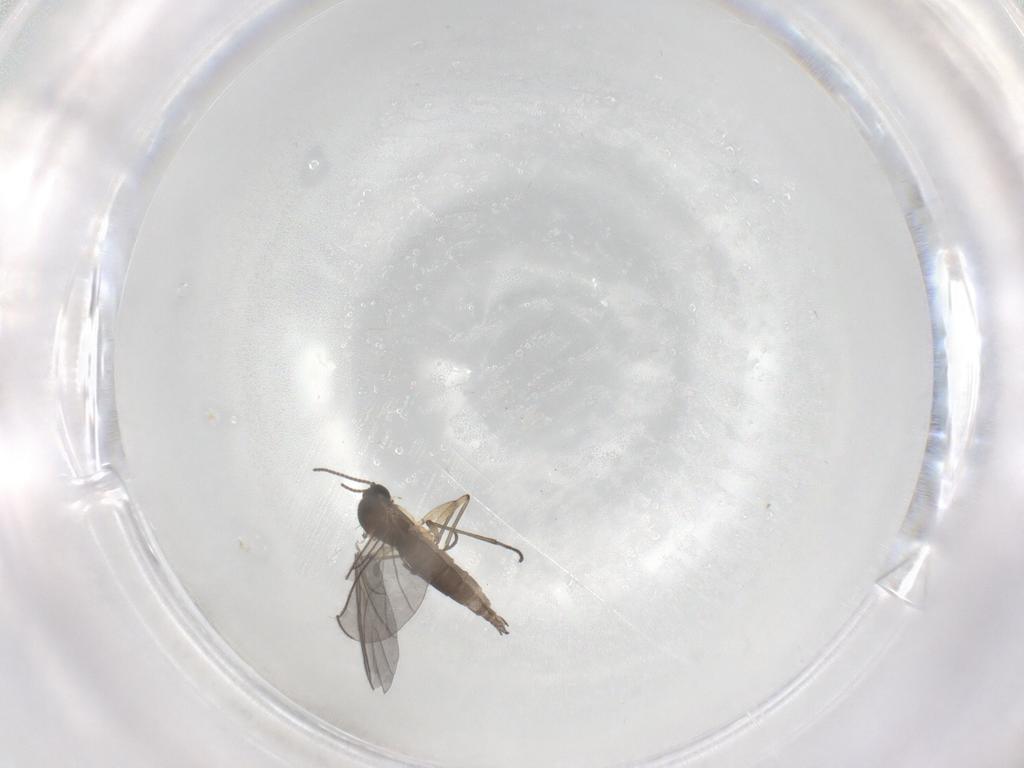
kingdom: Animalia
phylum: Arthropoda
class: Insecta
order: Diptera
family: Sciaridae
